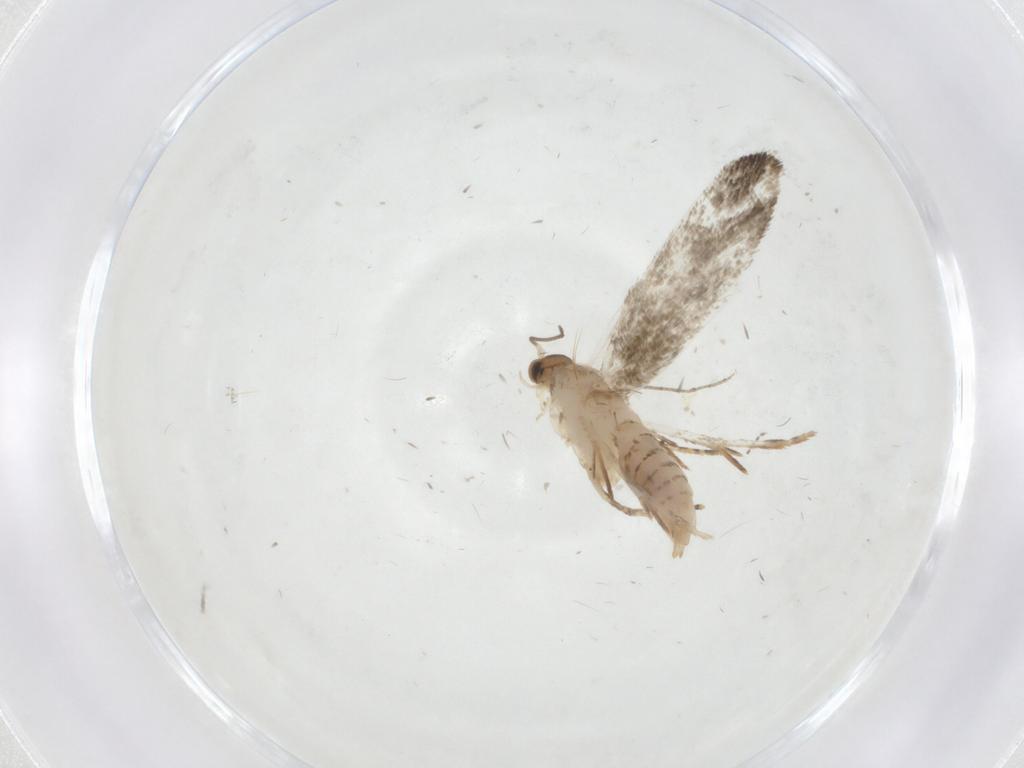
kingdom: Animalia
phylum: Arthropoda
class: Insecta
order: Lepidoptera
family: Tineidae
